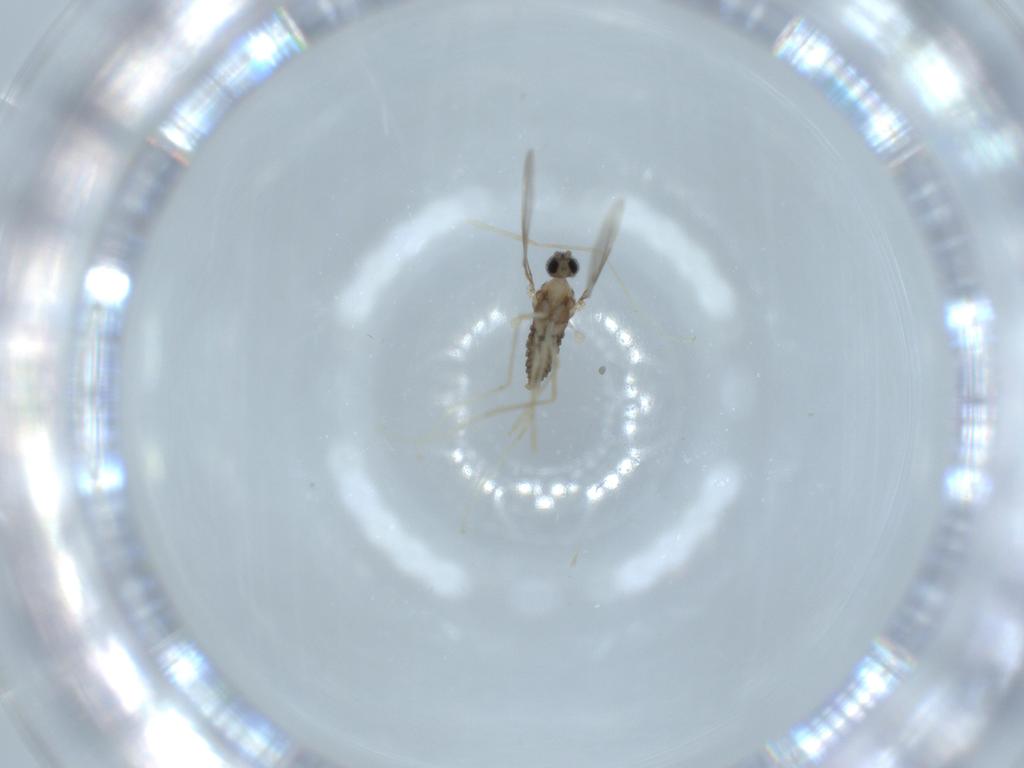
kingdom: Animalia
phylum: Arthropoda
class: Insecta
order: Diptera
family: Cecidomyiidae
